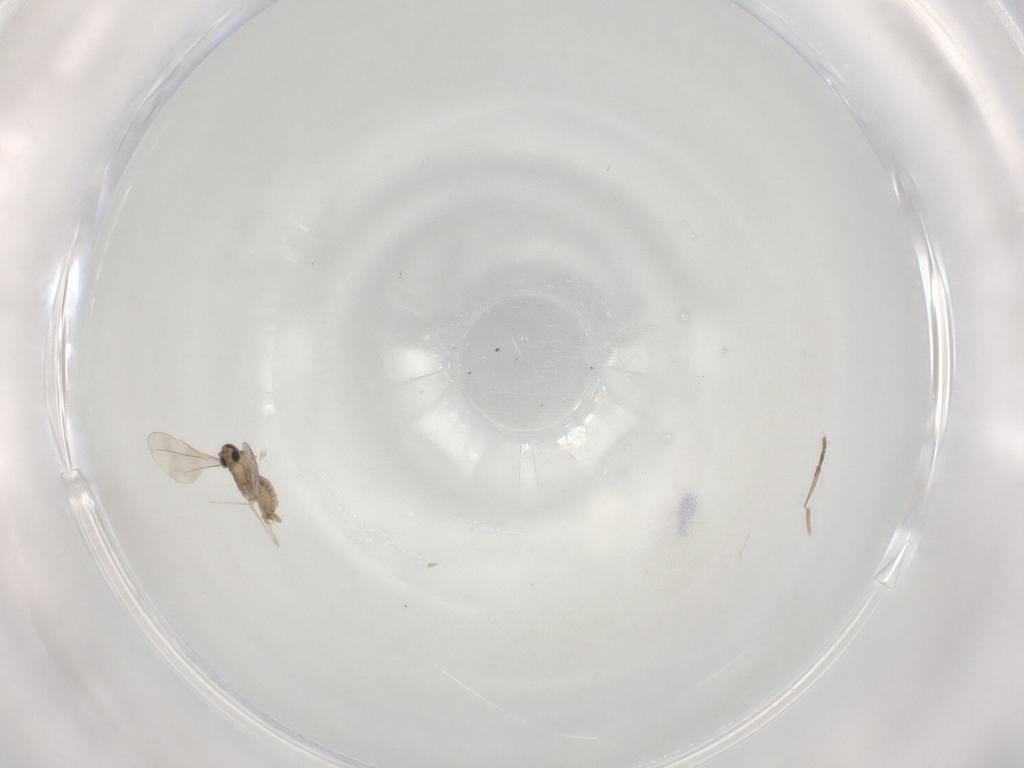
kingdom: Animalia
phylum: Arthropoda
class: Insecta
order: Diptera
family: Psychodidae
